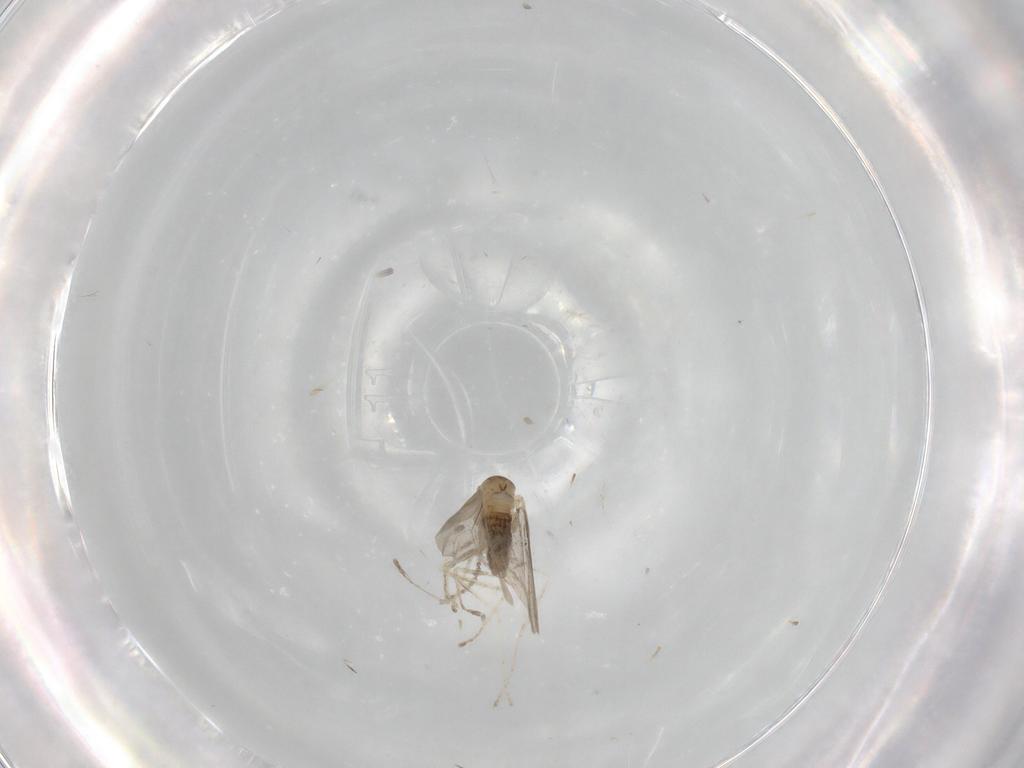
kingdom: Animalia
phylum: Arthropoda
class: Insecta
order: Diptera
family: Cecidomyiidae
